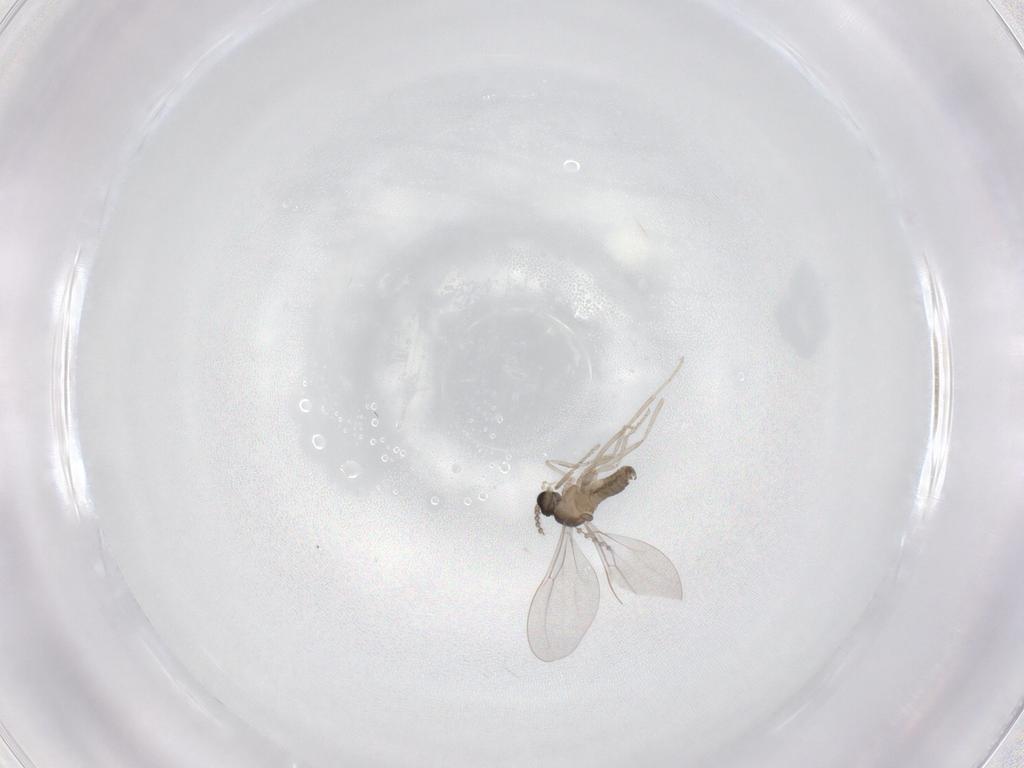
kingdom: Animalia
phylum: Arthropoda
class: Insecta
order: Diptera
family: Cecidomyiidae
